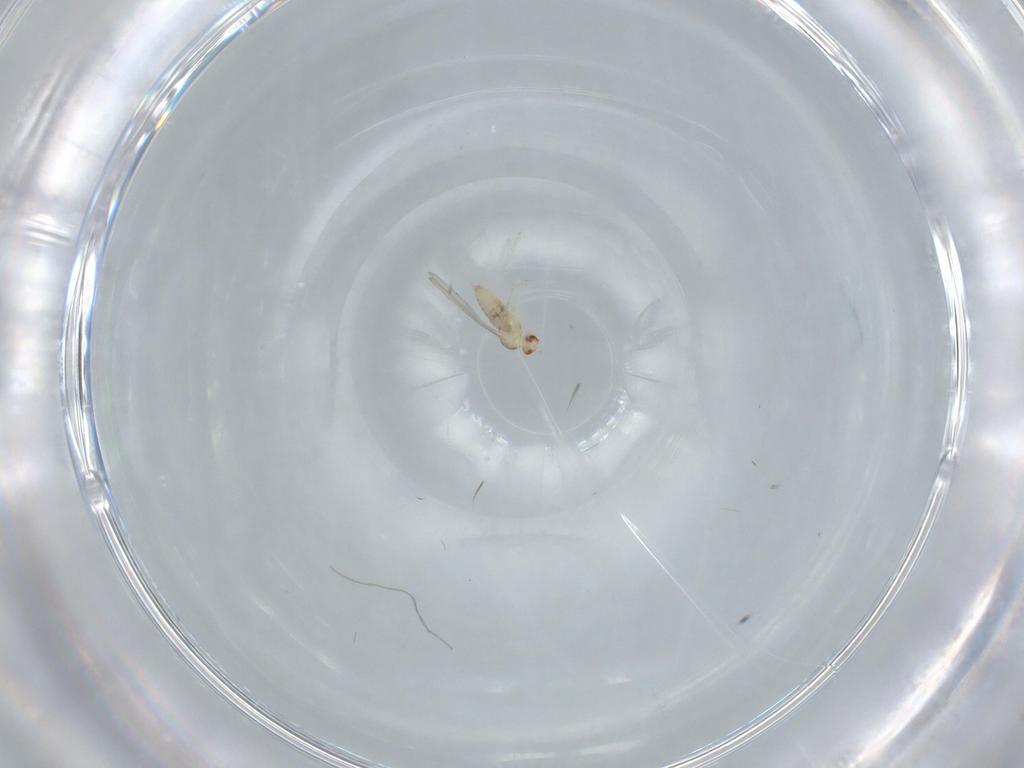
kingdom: Animalia
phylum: Arthropoda
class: Insecta
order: Diptera
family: Cecidomyiidae
